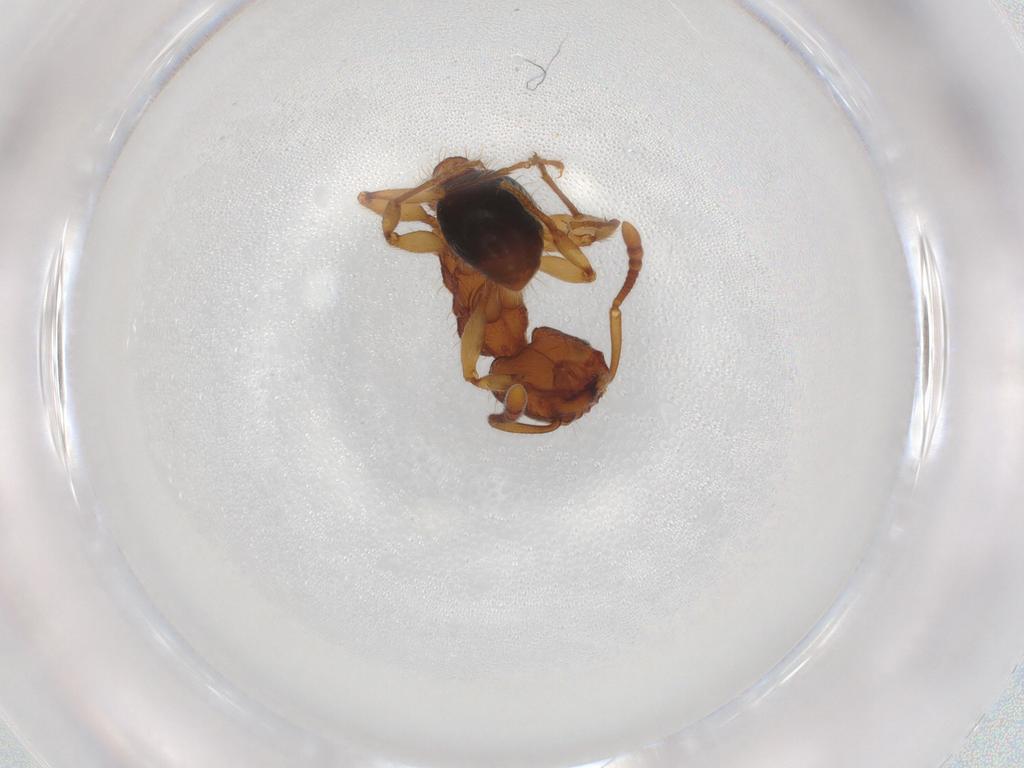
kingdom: Animalia
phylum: Arthropoda
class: Insecta
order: Hymenoptera
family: Formicidae
